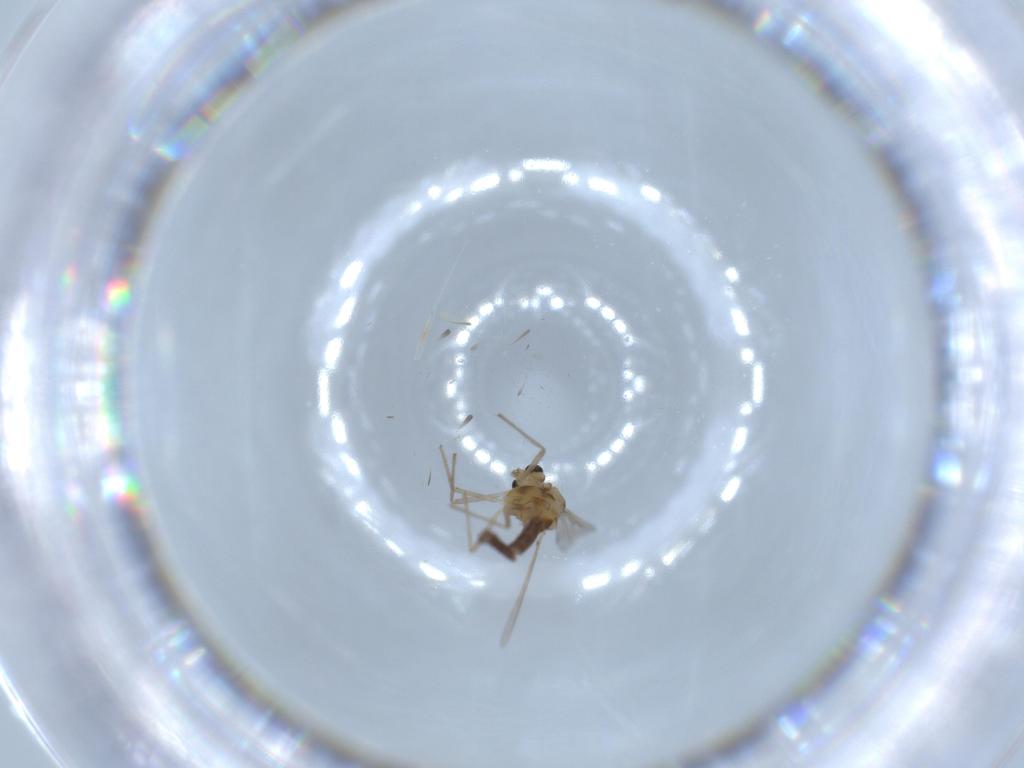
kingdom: Animalia
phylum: Arthropoda
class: Insecta
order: Diptera
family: Chironomidae
